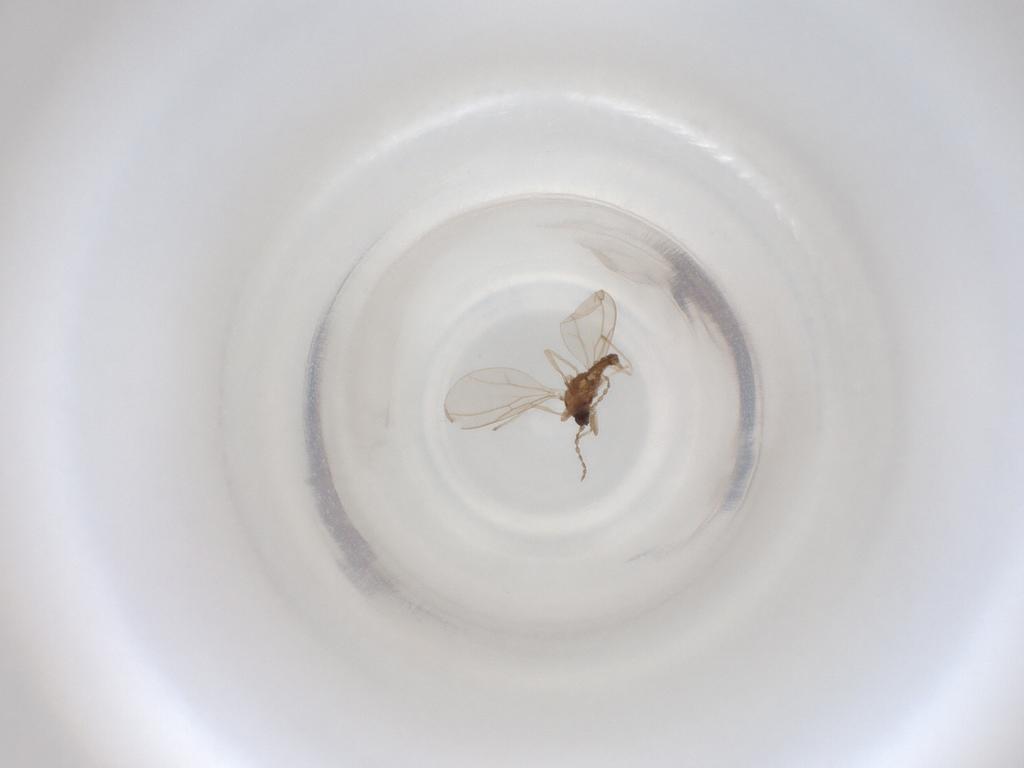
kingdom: Animalia
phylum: Arthropoda
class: Insecta
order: Diptera
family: Cecidomyiidae
